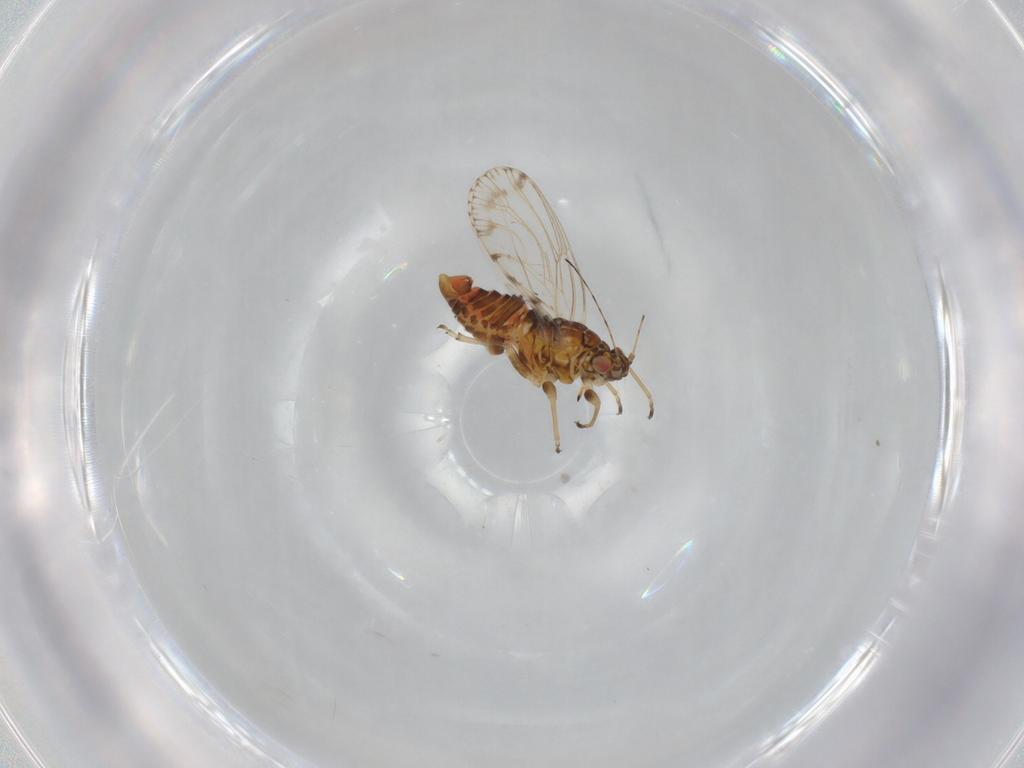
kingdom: Animalia
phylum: Arthropoda
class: Insecta
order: Hemiptera
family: Psyllidae
